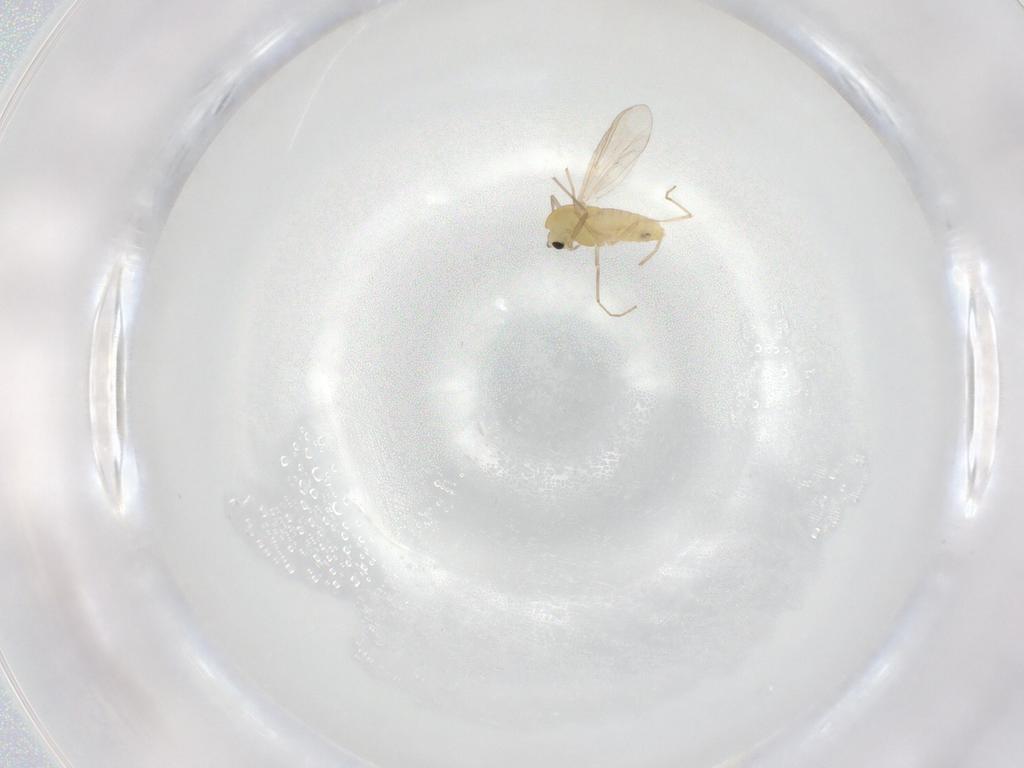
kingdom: Animalia
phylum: Arthropoda
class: Insecta
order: Diptera
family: Chironomidae
